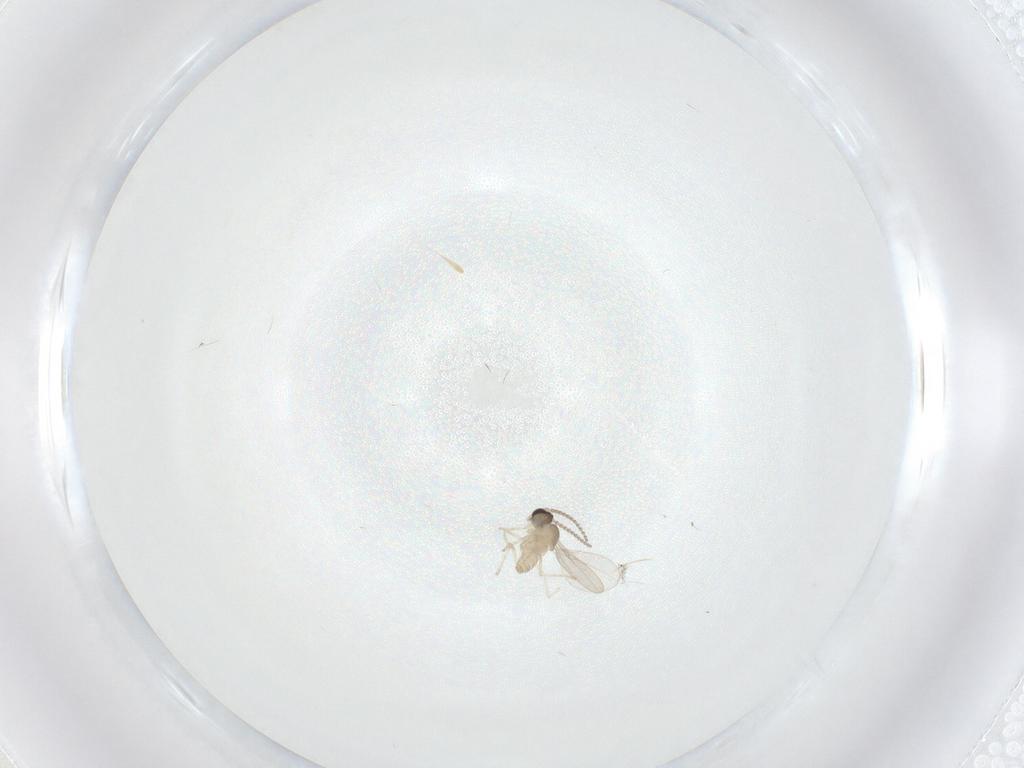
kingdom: Animalia
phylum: Arthropoda
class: Insecta
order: Diptera
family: Cecidomyiidae
